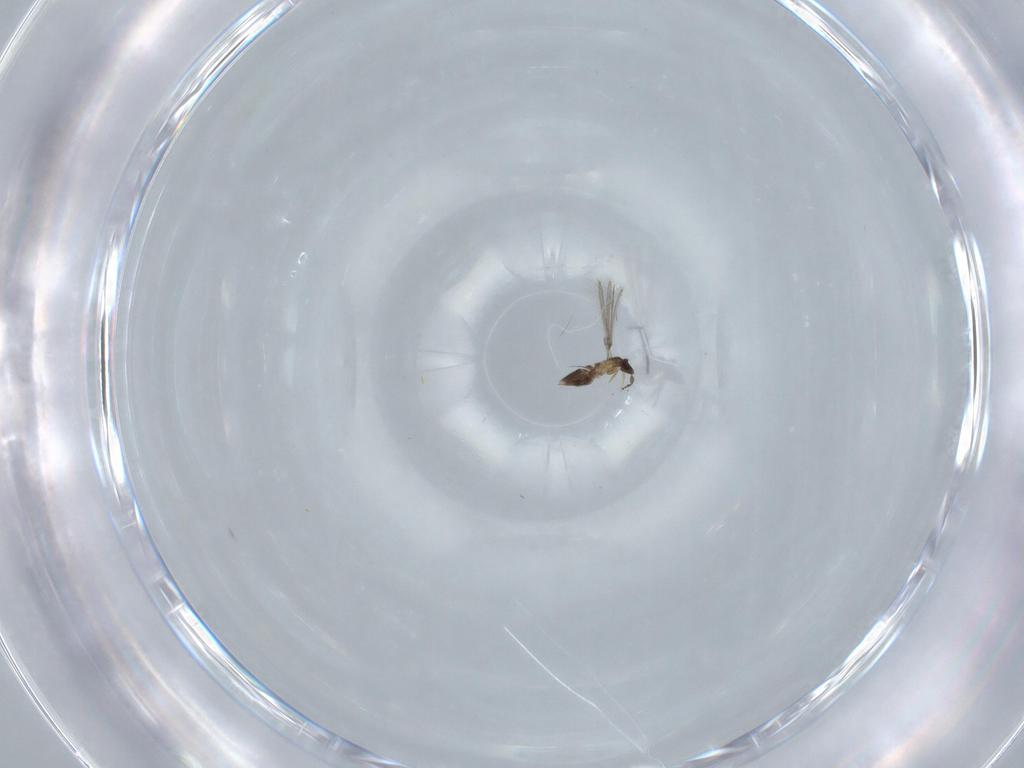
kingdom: Animalia
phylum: Arthropoda
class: Insecta
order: Hymenoptera
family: Mymaridae
